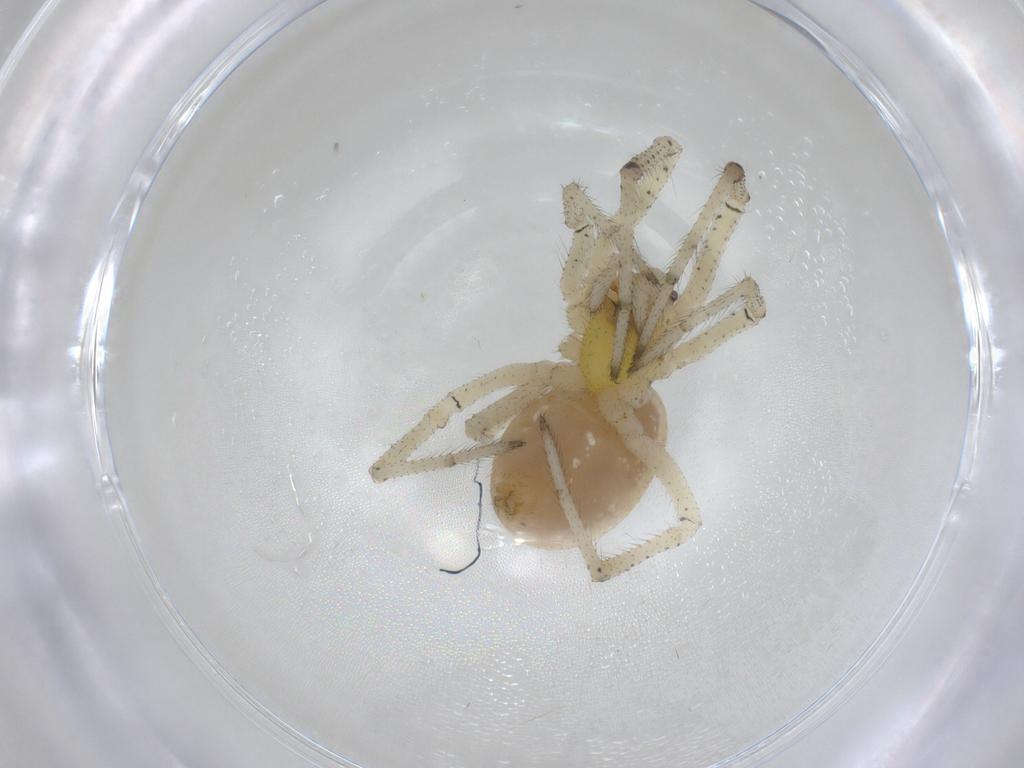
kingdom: Animalia
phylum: Arthropoda
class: Arachnida
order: Araneae
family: Theridiidae
